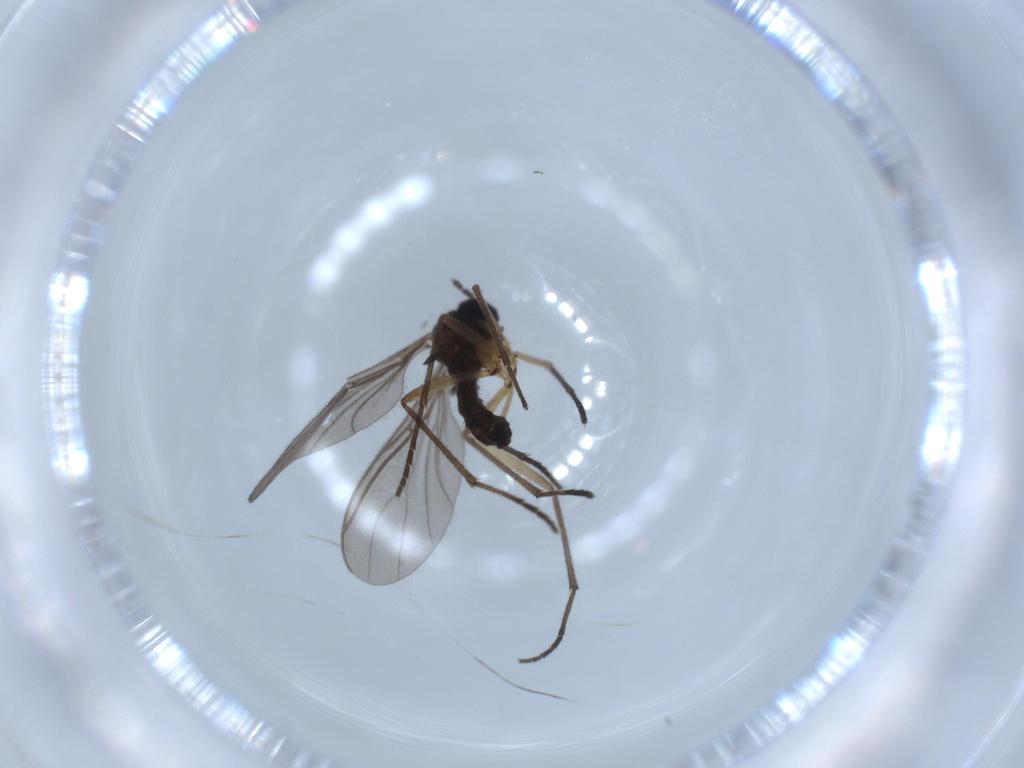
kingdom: Animalia
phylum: Arthropoda
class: Insecta
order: Diptera
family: Sciaridae
